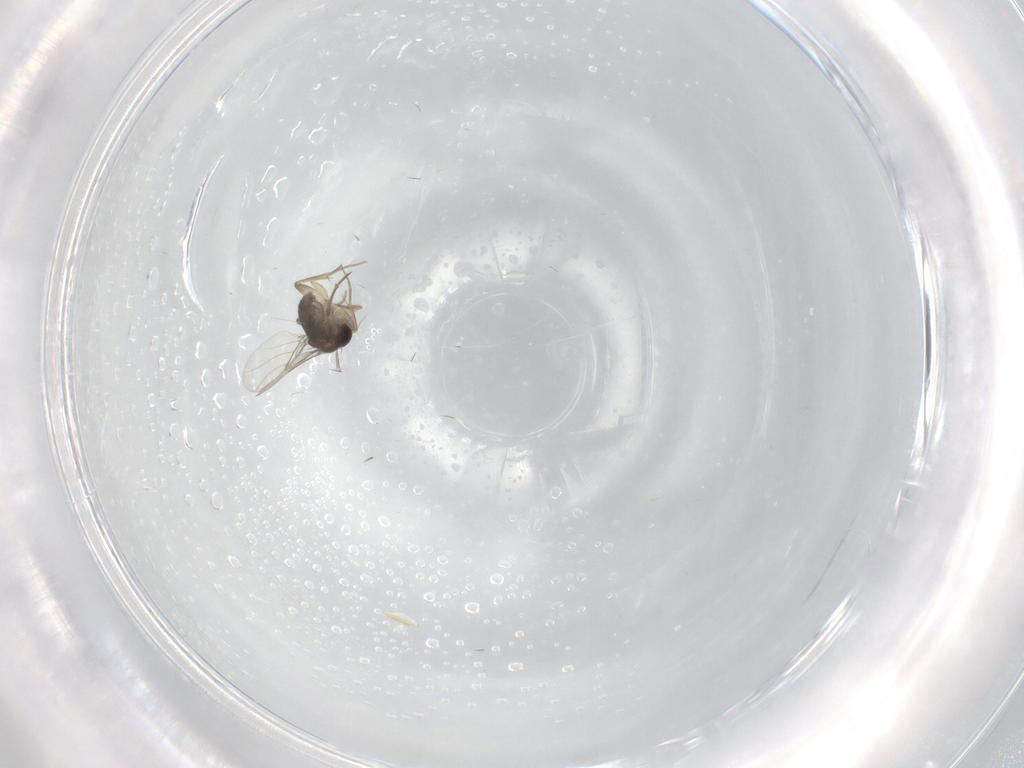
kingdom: Animalia
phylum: Arthropoda
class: Insecta
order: Diptera
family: Phoridae
